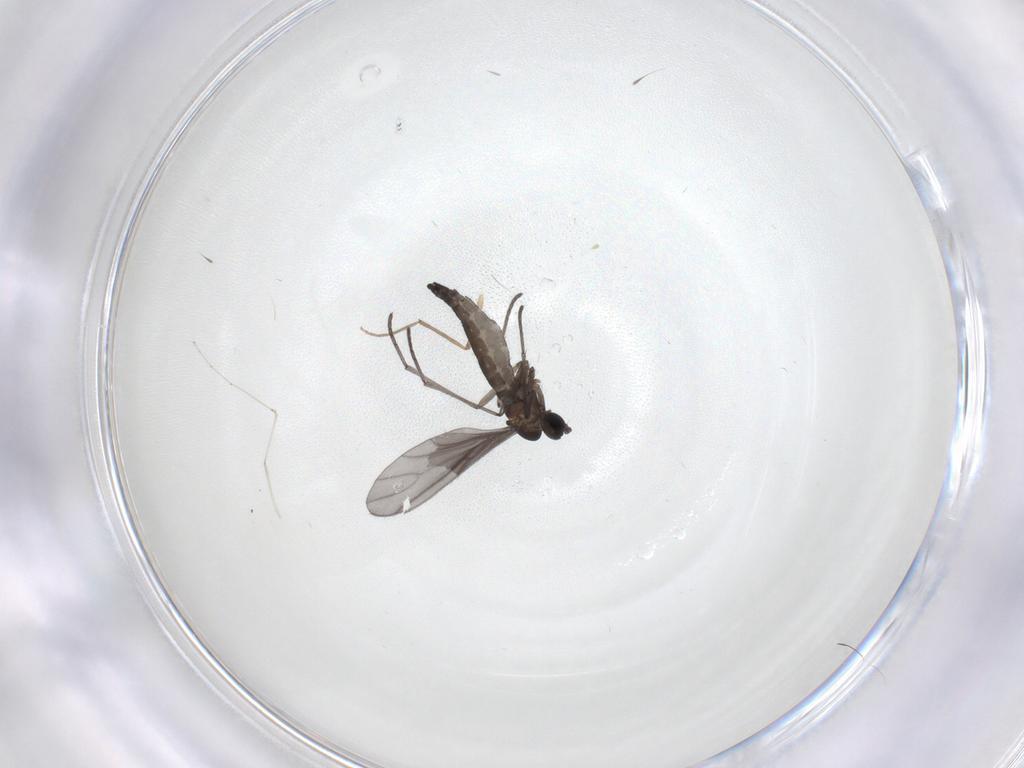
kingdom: Animalia
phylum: Arthropoda
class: Insecta
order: Diptera
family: Sciaridae
